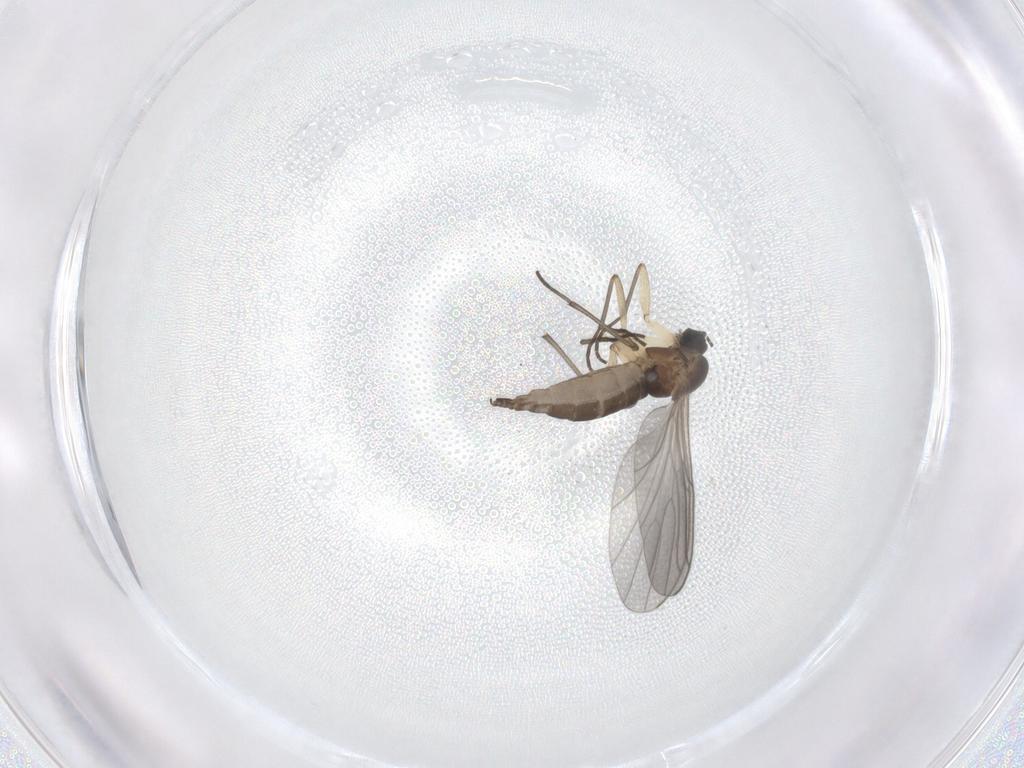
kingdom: Animalia
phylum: Arthropoda
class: Insecta
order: Diptera
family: Sciaridae
